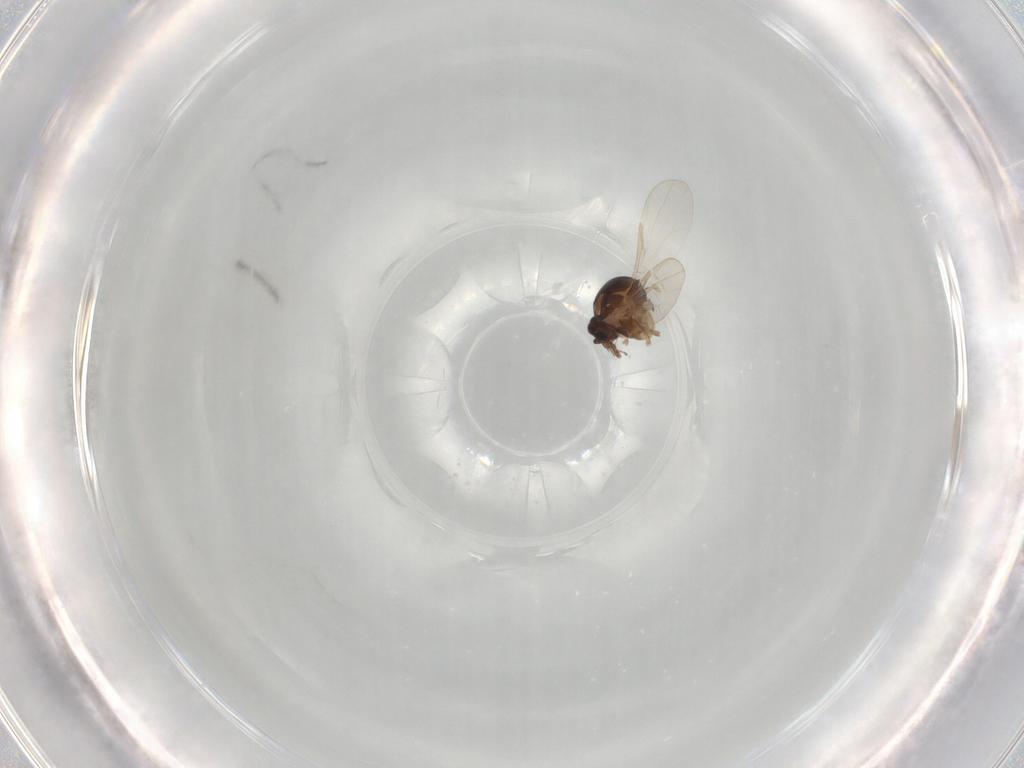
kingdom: Animalia
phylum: Arthropoda
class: Insecta
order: Diptera
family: Ceratopogonidae
